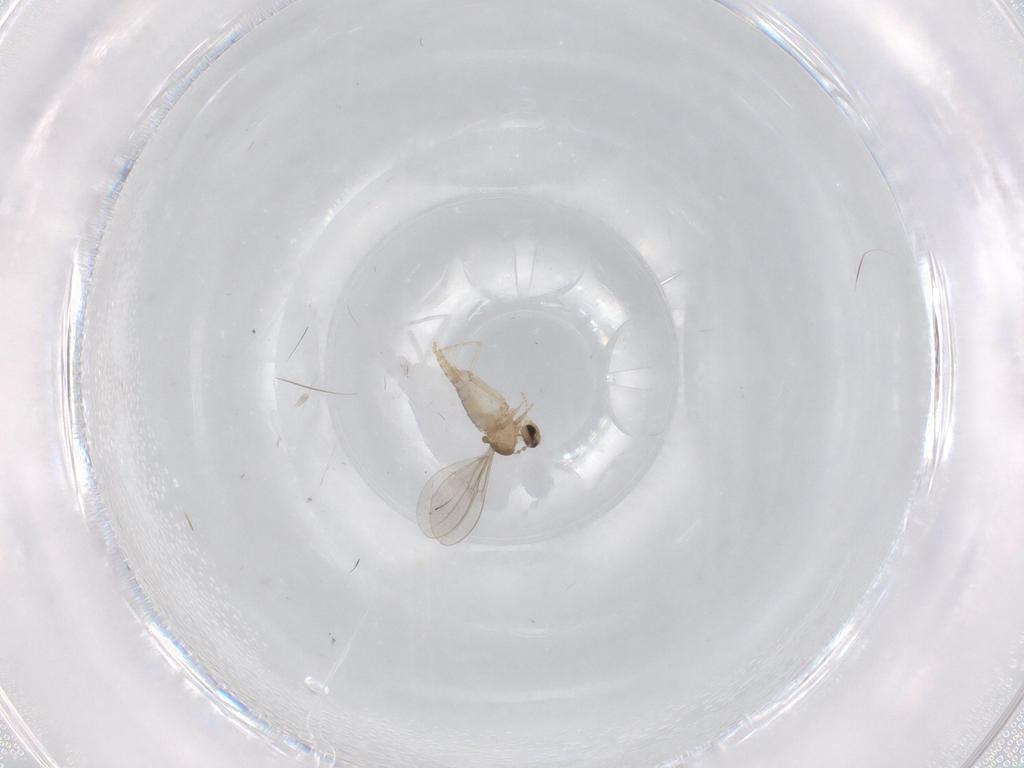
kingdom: Animalia
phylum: Arthropoda
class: Insecta
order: Diptera
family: Cecidomyiidae
